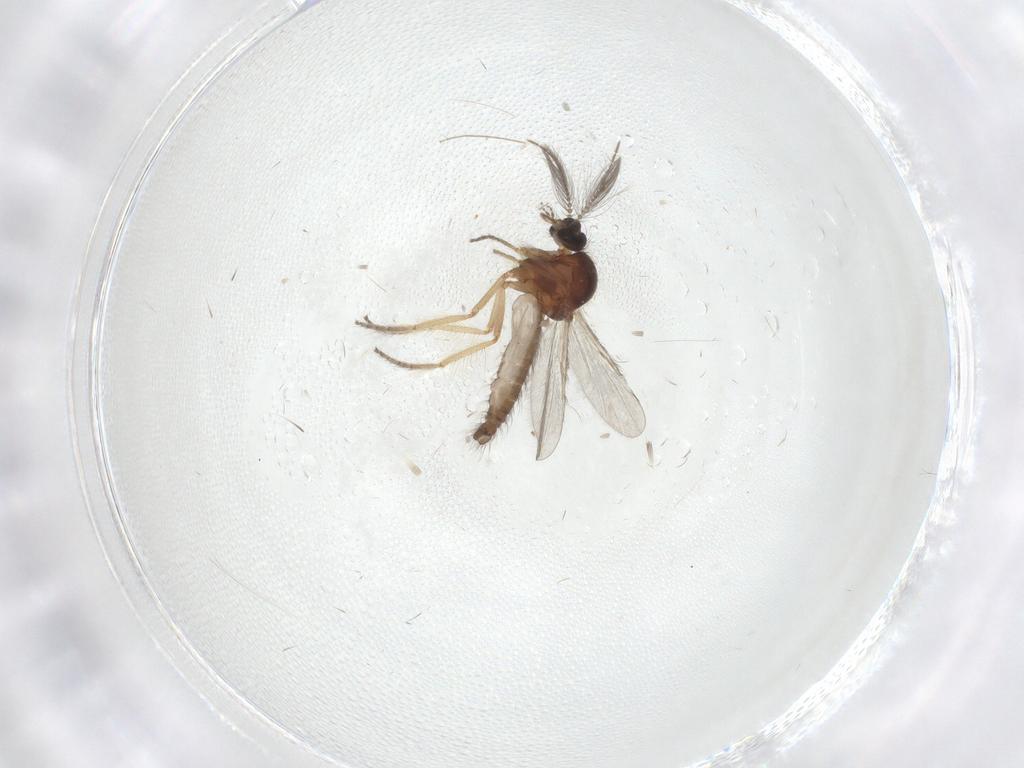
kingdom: Animalia
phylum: Arthropoda
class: Insecta
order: Diptera
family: Ceratopogonidae
